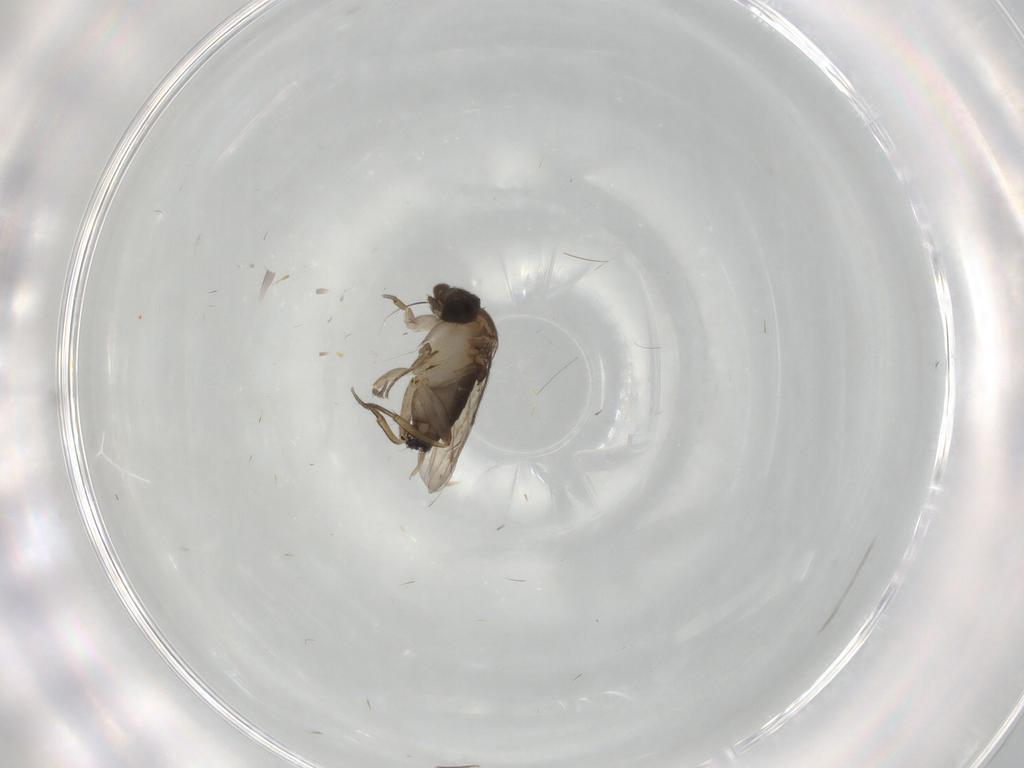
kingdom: Animalia
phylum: Arthropoda
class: Insecta
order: Diptera
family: Phoridae
